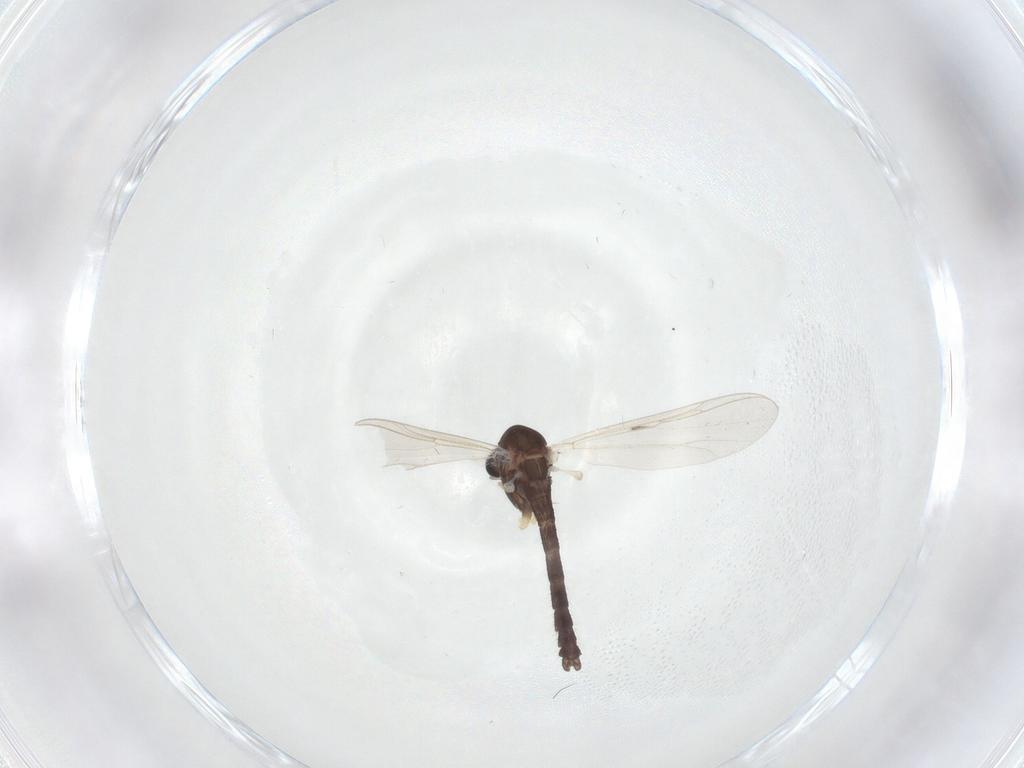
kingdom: Animalia
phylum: Arthropoda
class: Insecta
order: Diptera
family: Chironomidae
